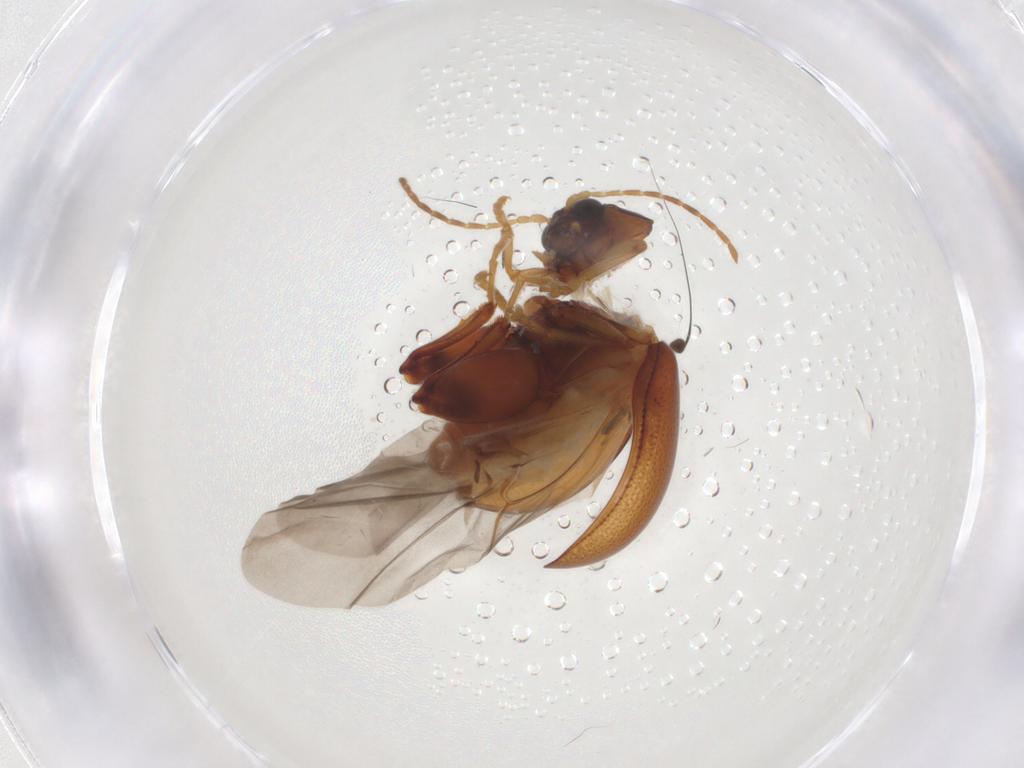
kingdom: Animalia
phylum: Arthropoda
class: Insecta
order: Coleoptera
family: Chrysomelidae
